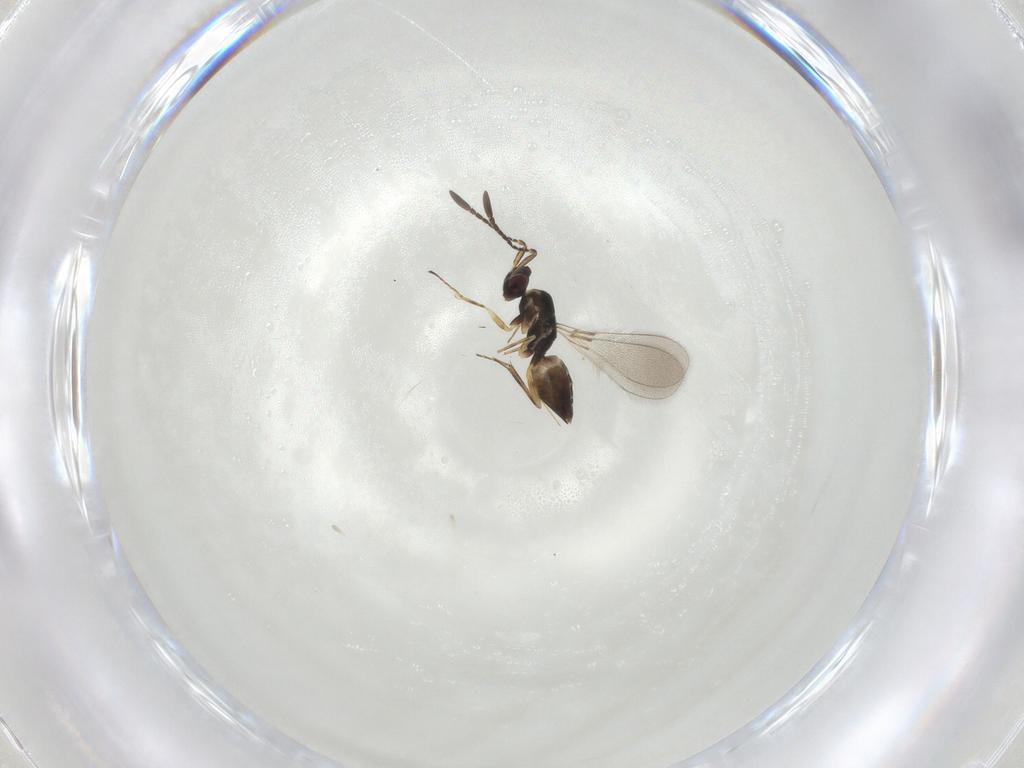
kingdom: Animalia
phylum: Arthropoda
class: Insecta
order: Hymenoptera
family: Mymaridae
